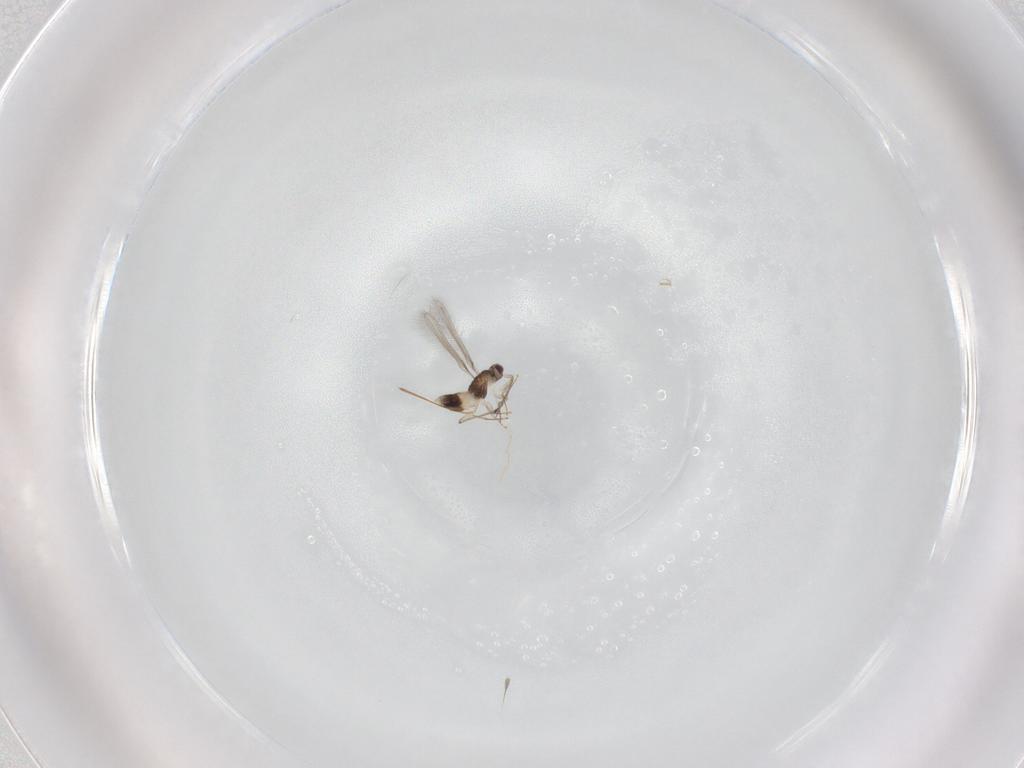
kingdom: Animalia
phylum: Arthropoda
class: Insecta
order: Hymenoptera
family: Mymaridae
